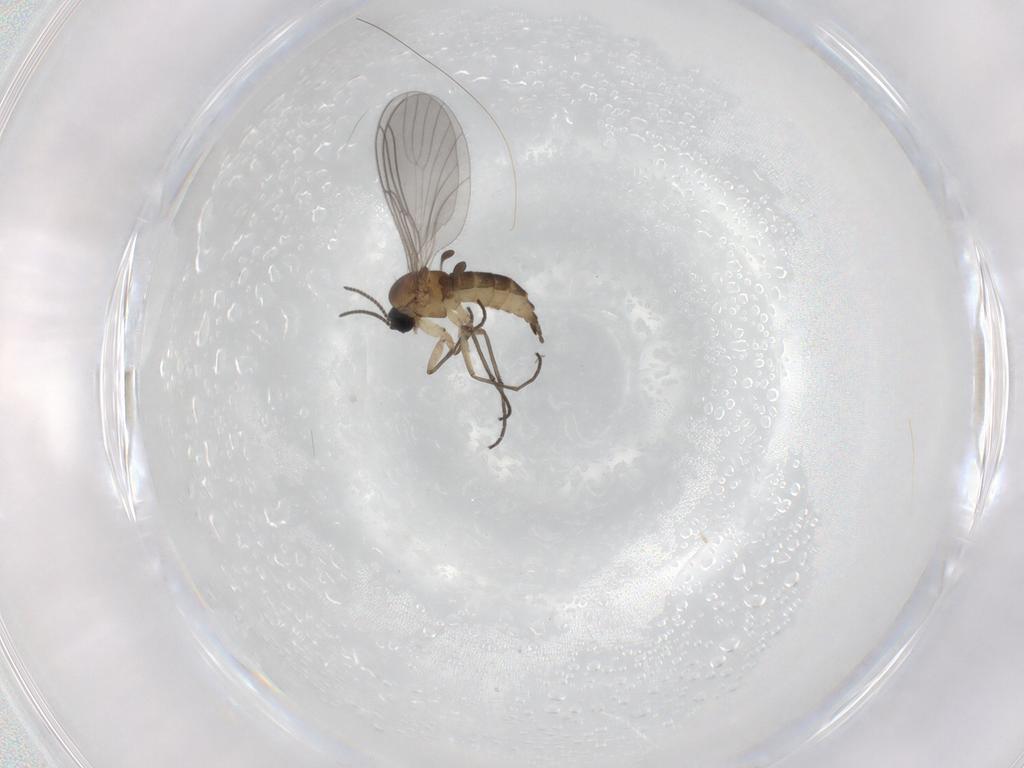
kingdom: Animalia
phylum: Arthropoda
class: Insecta
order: Diptera
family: Sciaridae
